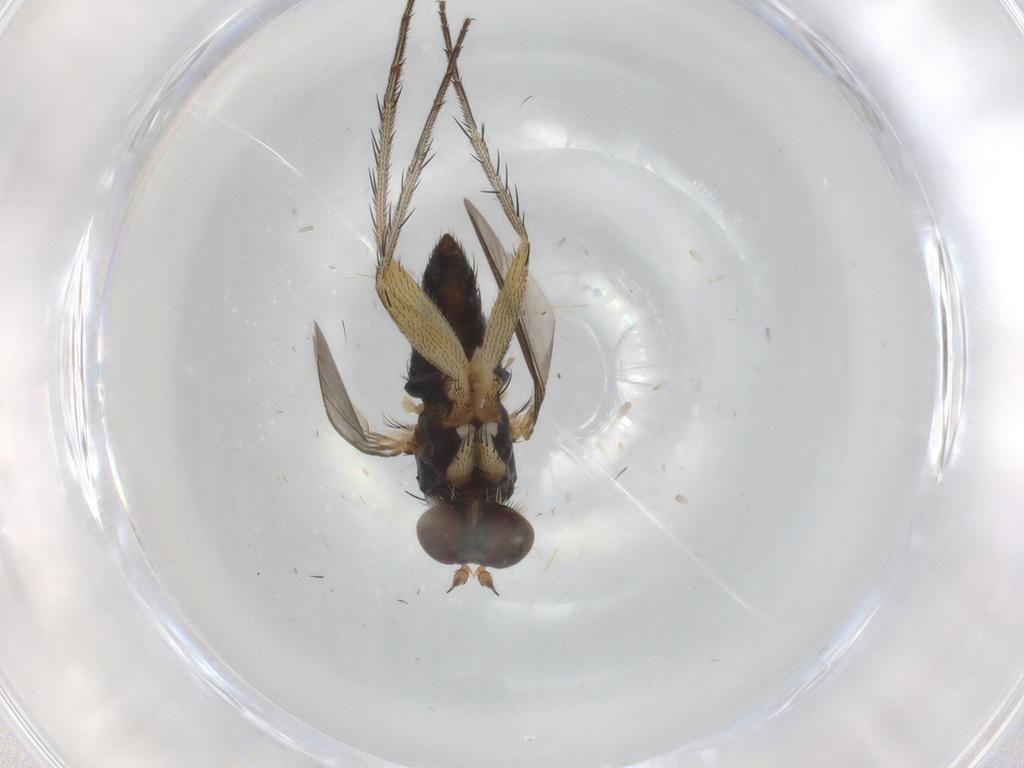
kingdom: Animalia
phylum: Arthropoda
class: Insecta
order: Diptera
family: Dolichopodidae
